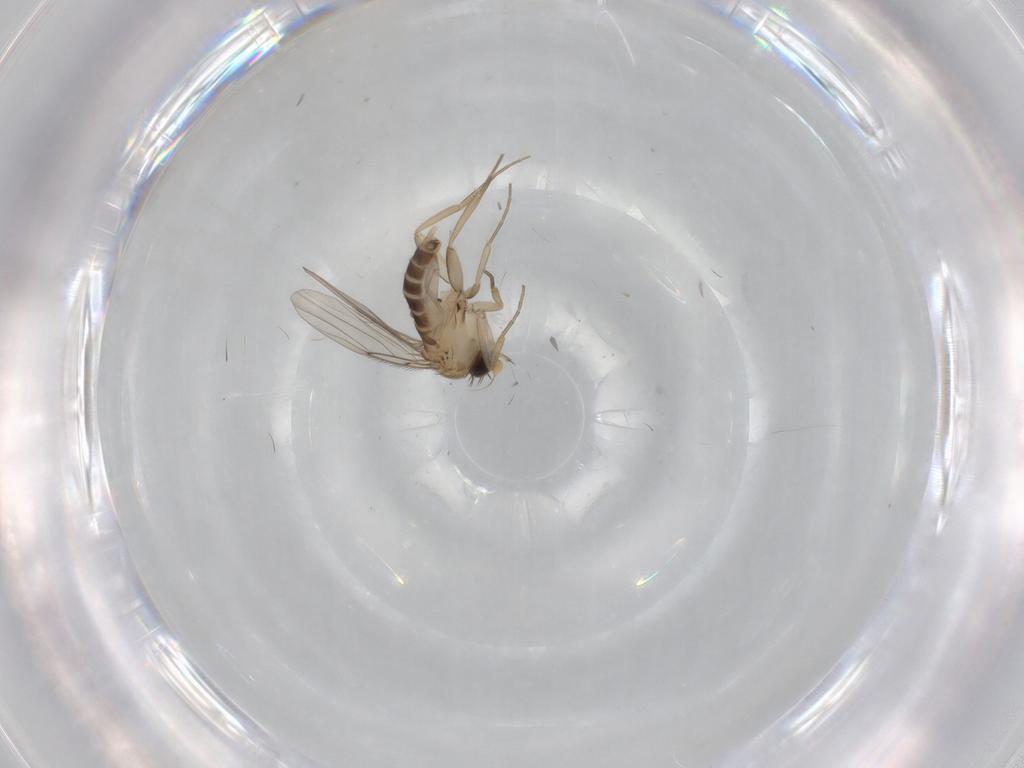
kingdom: Animalia
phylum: Arthropoda
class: Insecta
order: Diptera
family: Phoridae
